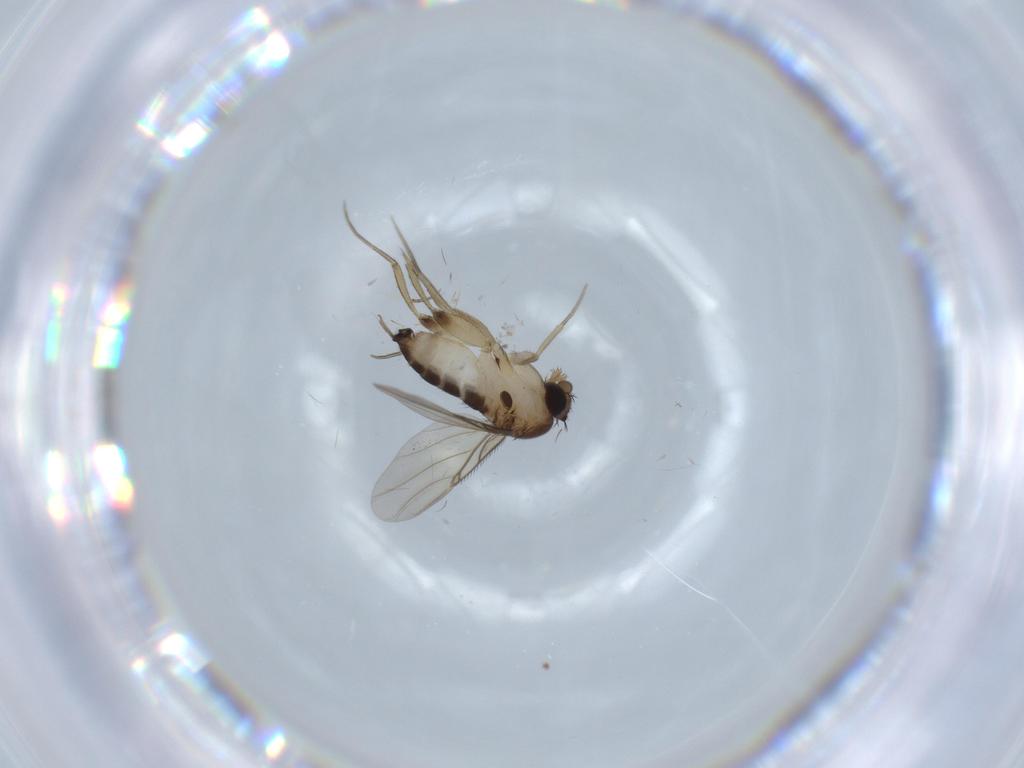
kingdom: Animalia
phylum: Arthropoda
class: Insecta
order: Diptera
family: Phoridae
